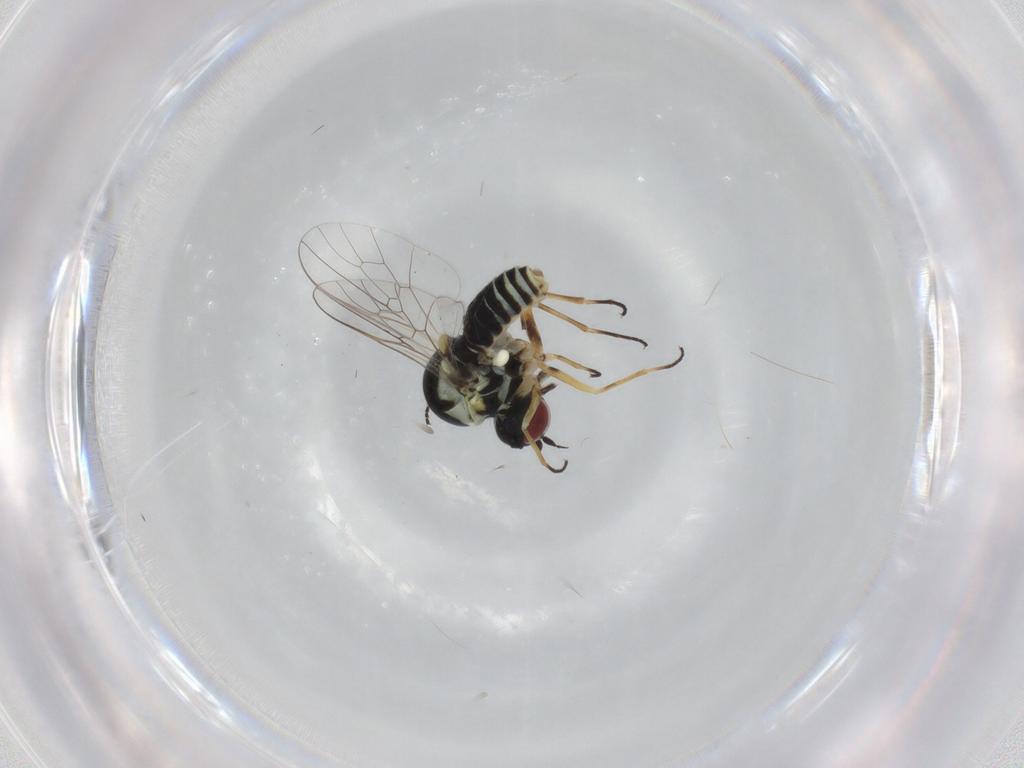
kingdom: Animalia
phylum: Arthropoda
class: Insecta
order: Diptera
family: Bombyliidae
